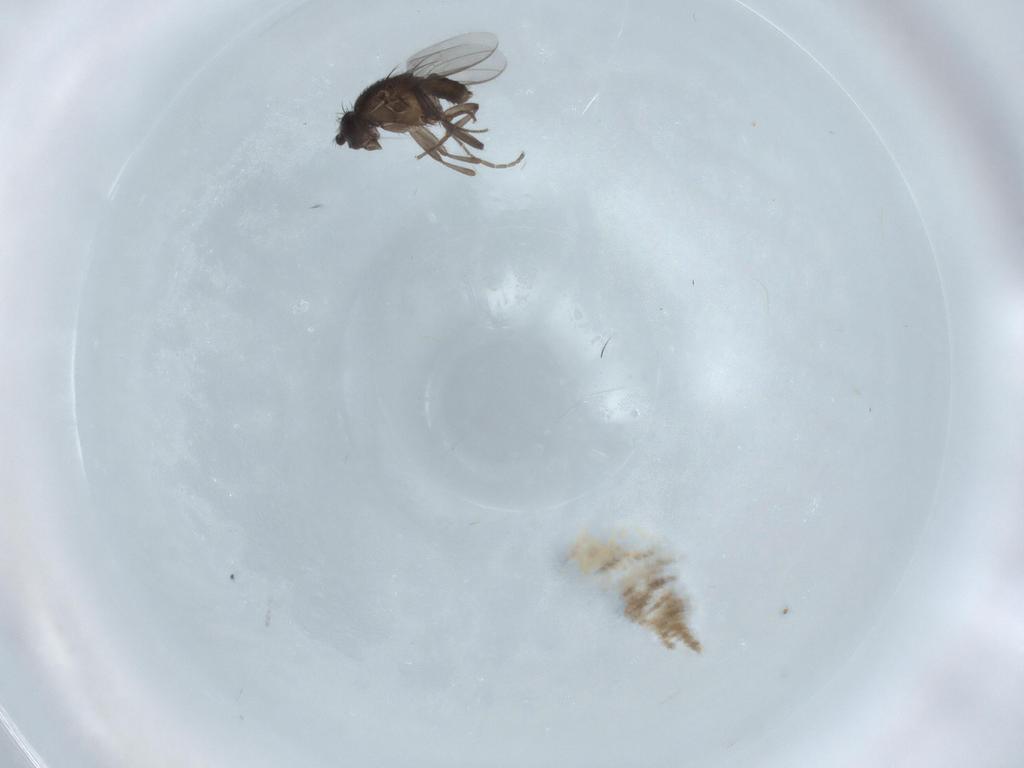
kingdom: Animalia
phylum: Arthropoda
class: Insecta
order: Diptera
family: Sphaeroceridae
